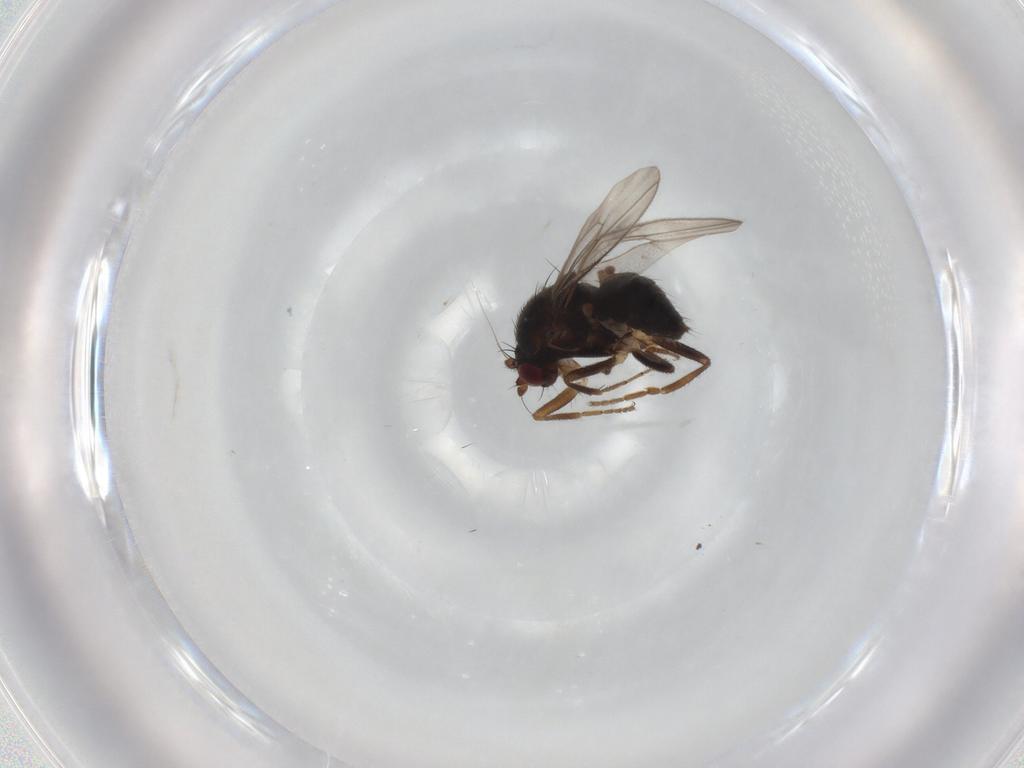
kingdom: Animalia
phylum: Arthropoda
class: Insecta
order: Diptera
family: Sphaeroceridae
